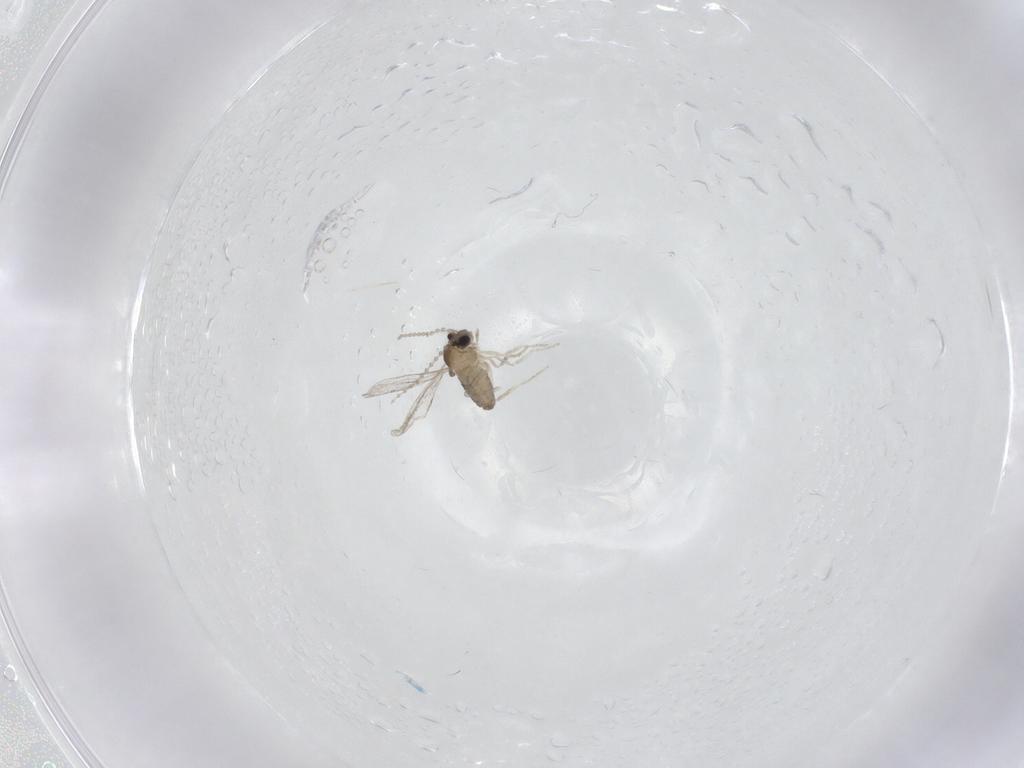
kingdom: Animalia
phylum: Arthropoda
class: Insecta
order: Diptera
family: Cecidomyiidae
